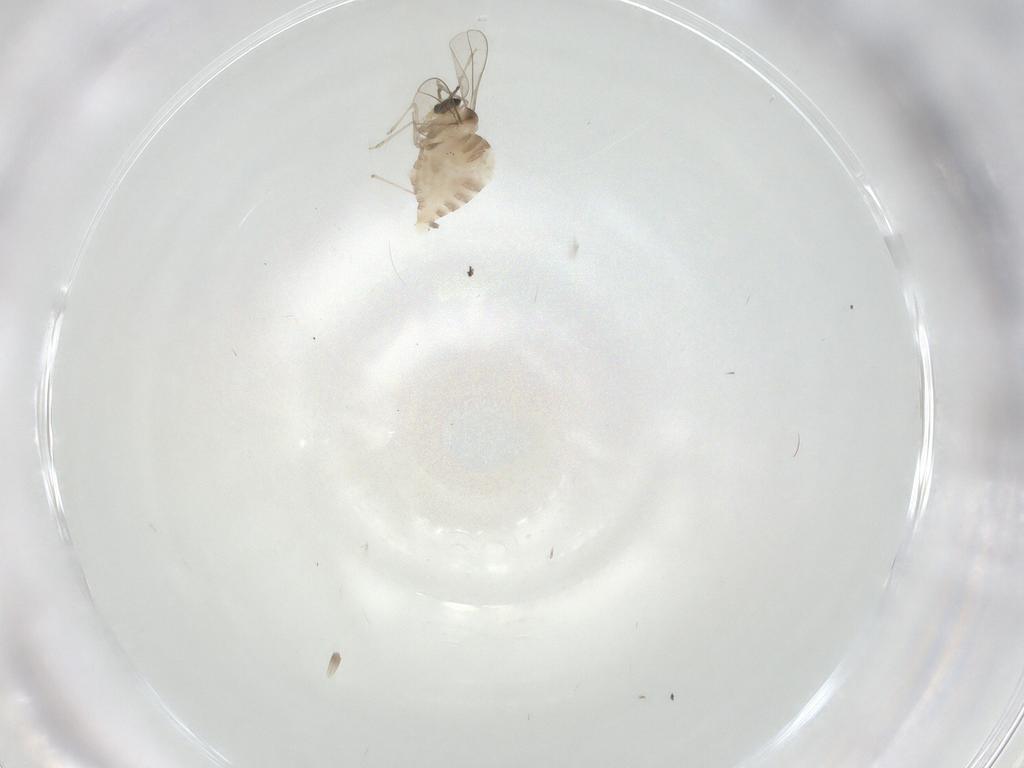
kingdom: Animalia
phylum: Arthropoda
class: Insecta
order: Diptera
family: Cecidomyiidae
